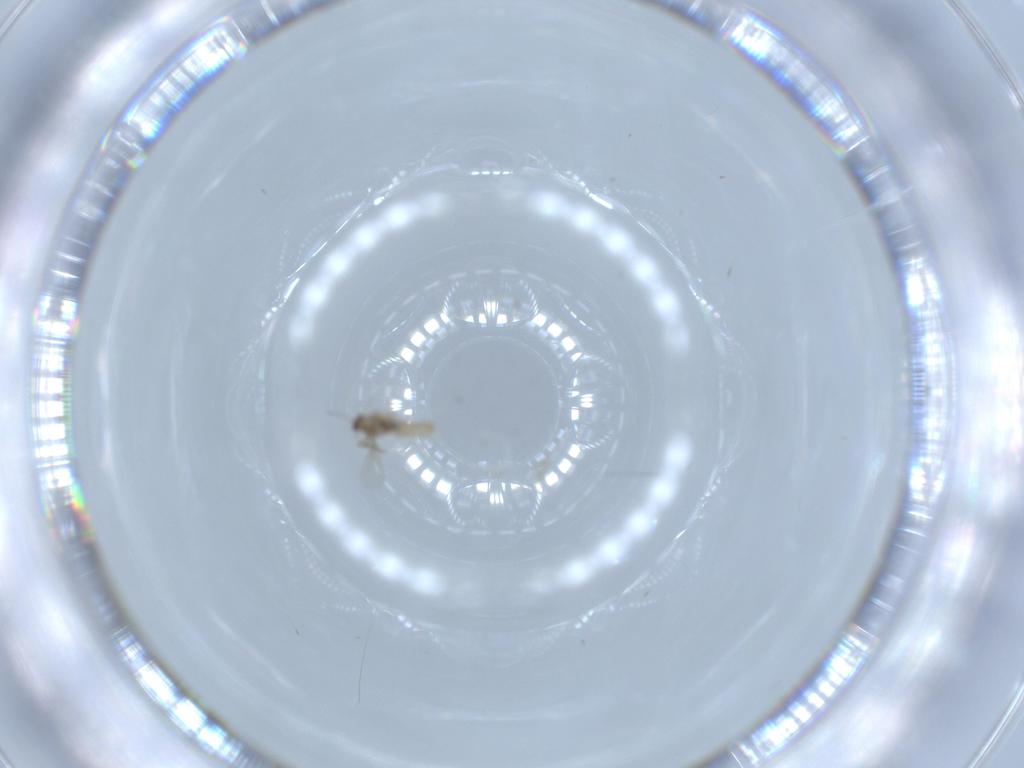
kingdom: Animalia
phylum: Arthropoda
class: Insecta
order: Diptera
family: Cecidomyiidae
